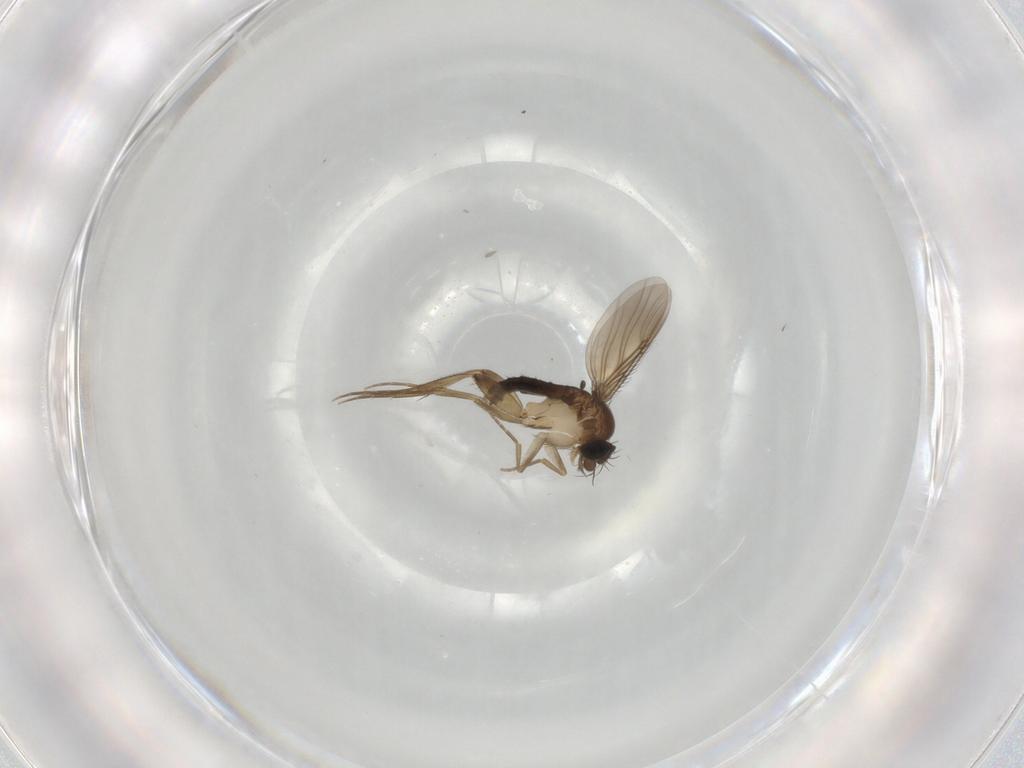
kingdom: Animalia
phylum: Arthropoda
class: Insecta
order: Diptera
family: Phoridae
